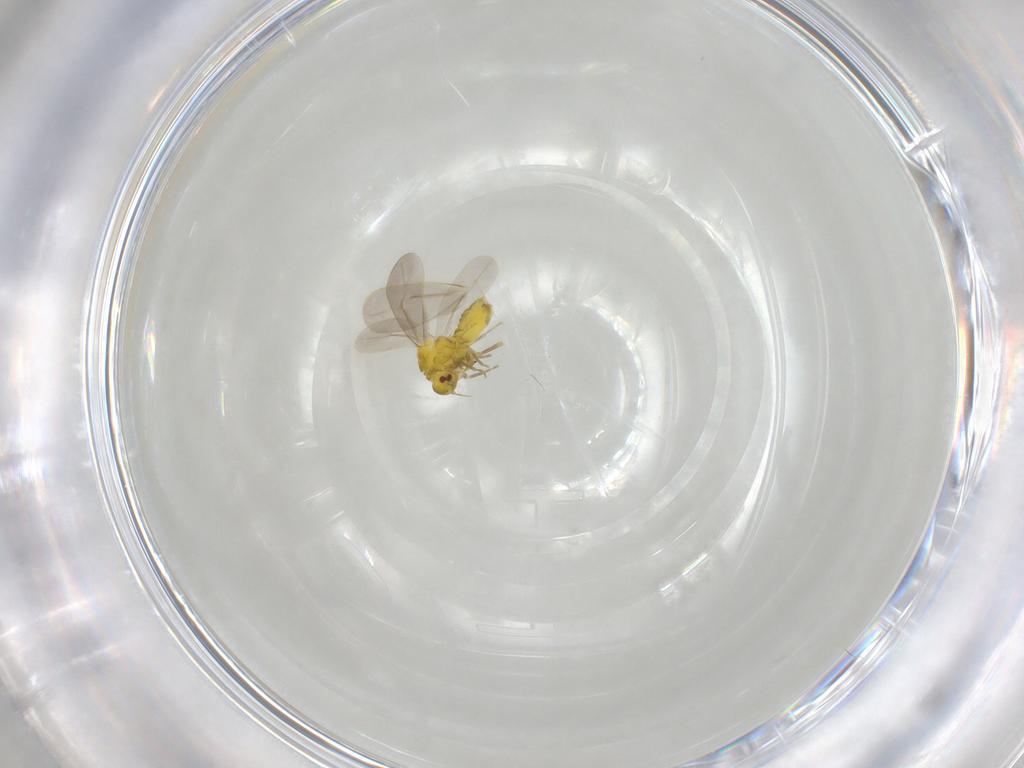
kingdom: Animalia
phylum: Arthropoda
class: Insecta
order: Hemiptera
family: Aleyrodidae
